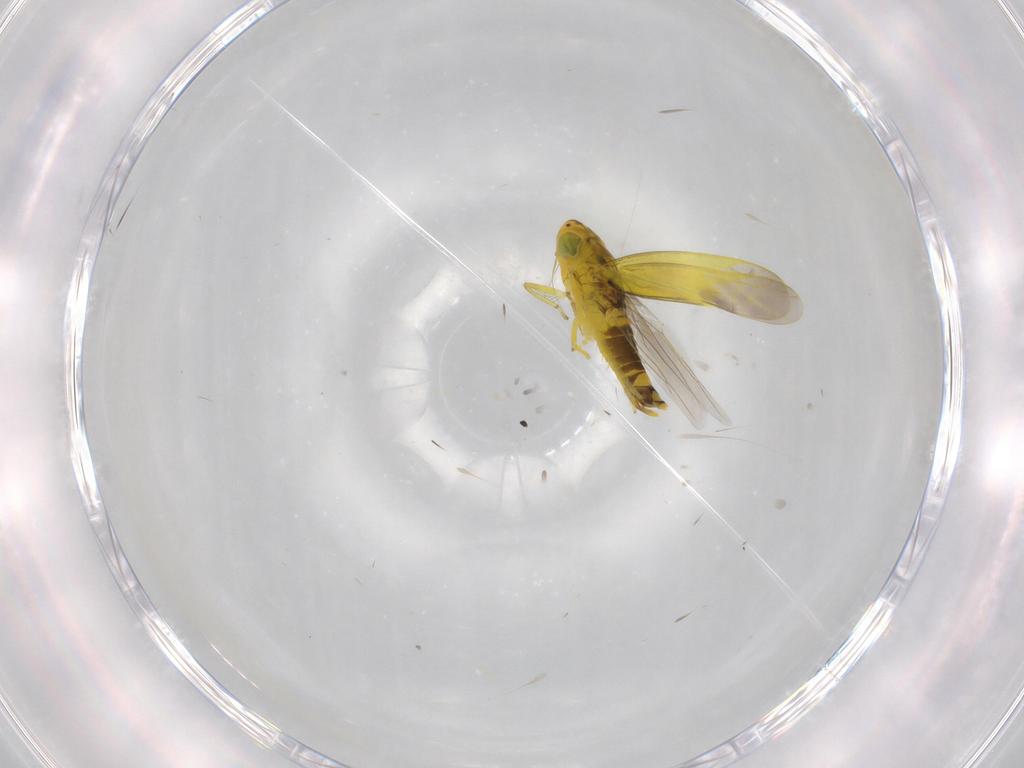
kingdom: Animalia
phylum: Arthropoda
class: Insecta
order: Hemiptera
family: Cicadellidae
